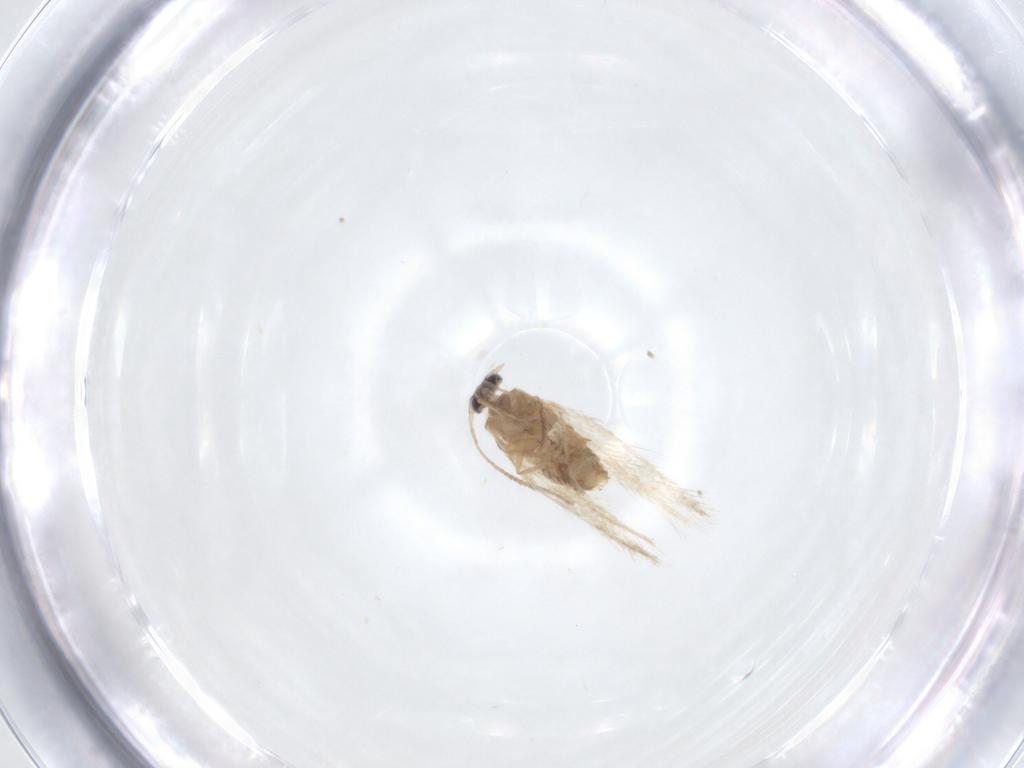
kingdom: Animalia
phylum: Arthropoda
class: Insecta
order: Lepidoptera
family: Nepticulidae
